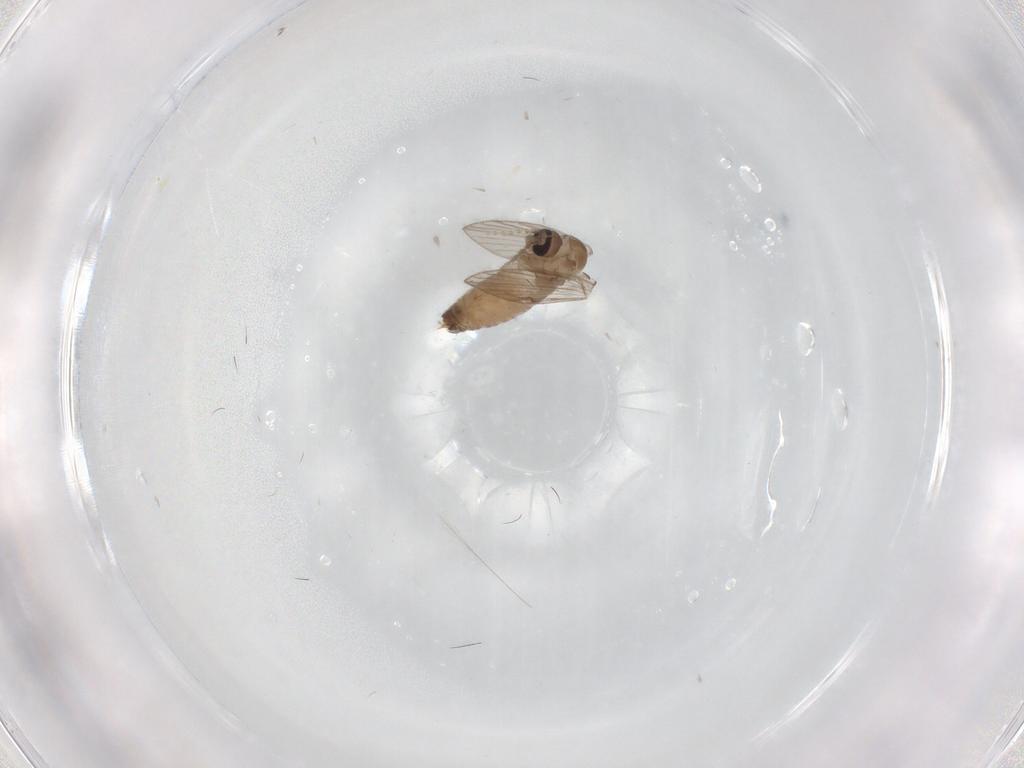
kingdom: Animalia
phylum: Arthropoda
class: Insecta
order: Diptera
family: Psychodidae
